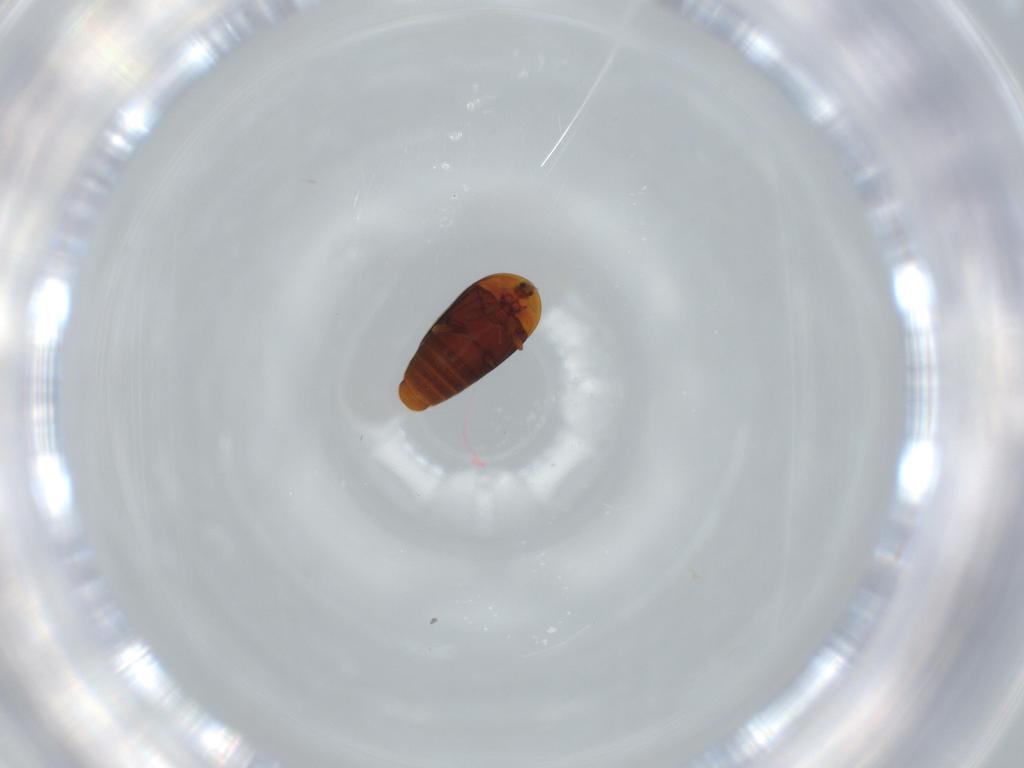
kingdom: Animalia
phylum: Arthropoda
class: Insecta
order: Coleoptera
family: Corylophidae
